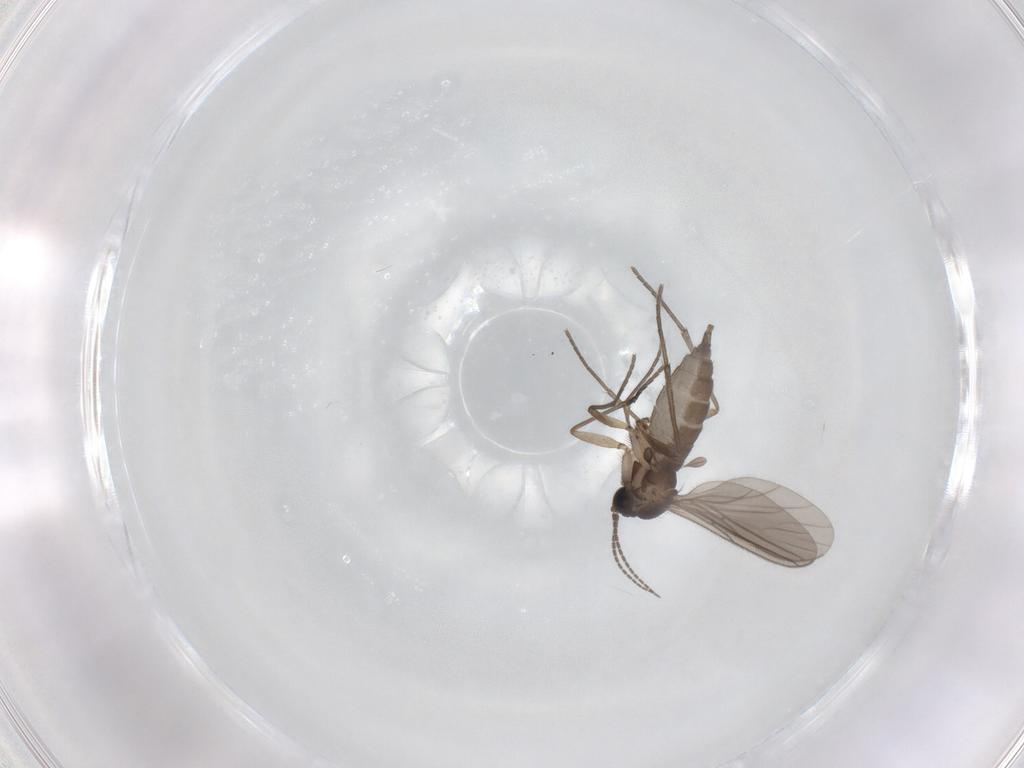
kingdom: Animalia
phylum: Arthropoda
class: Insecta
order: Diptera
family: Sciaridae
